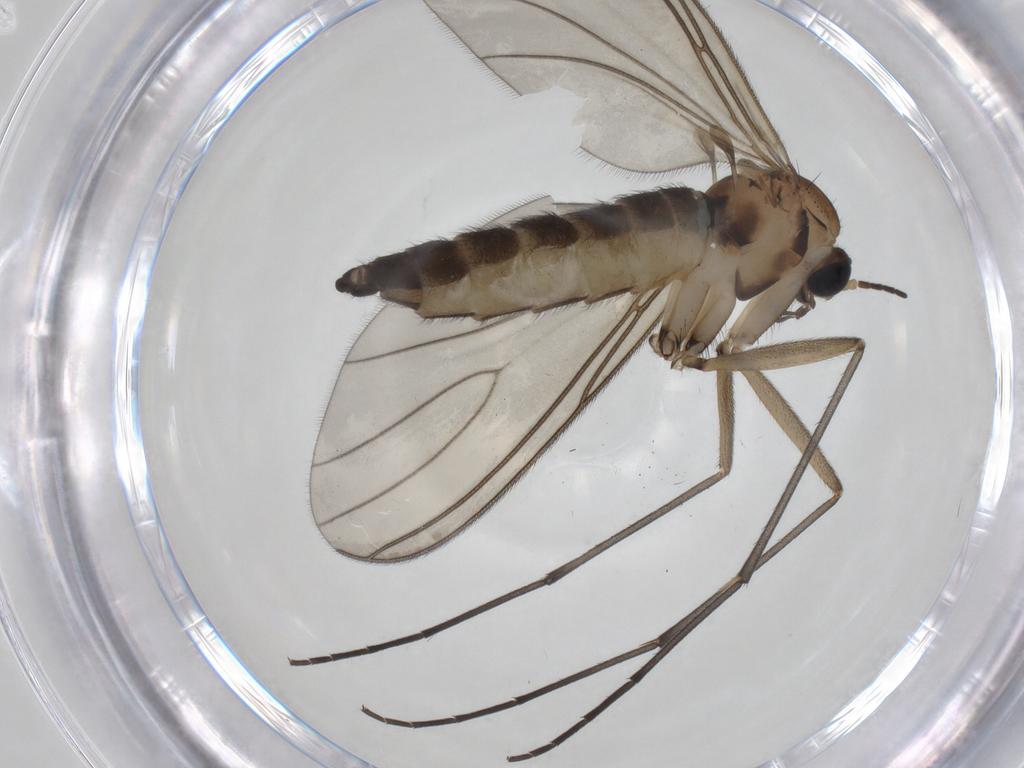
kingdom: Animalia
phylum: Arthropoda
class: Insecta
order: Diptera
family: Sciaridae
